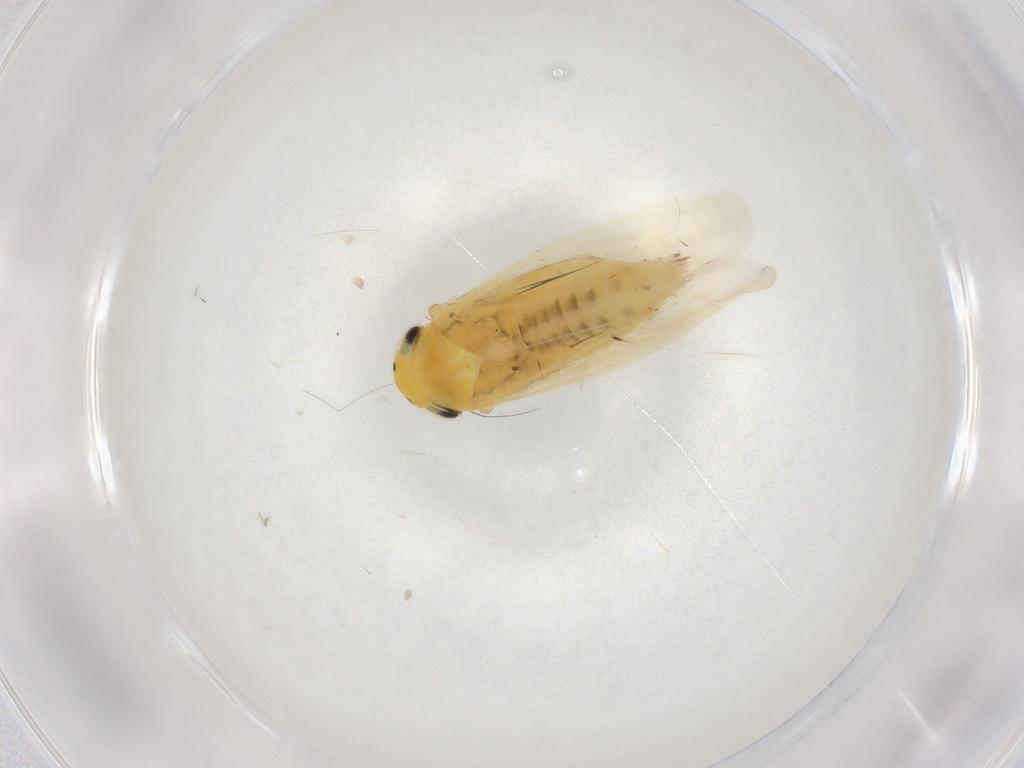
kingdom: Animalia
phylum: Arthropoda
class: Insecta
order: Hemiptera
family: Cicadellidae
